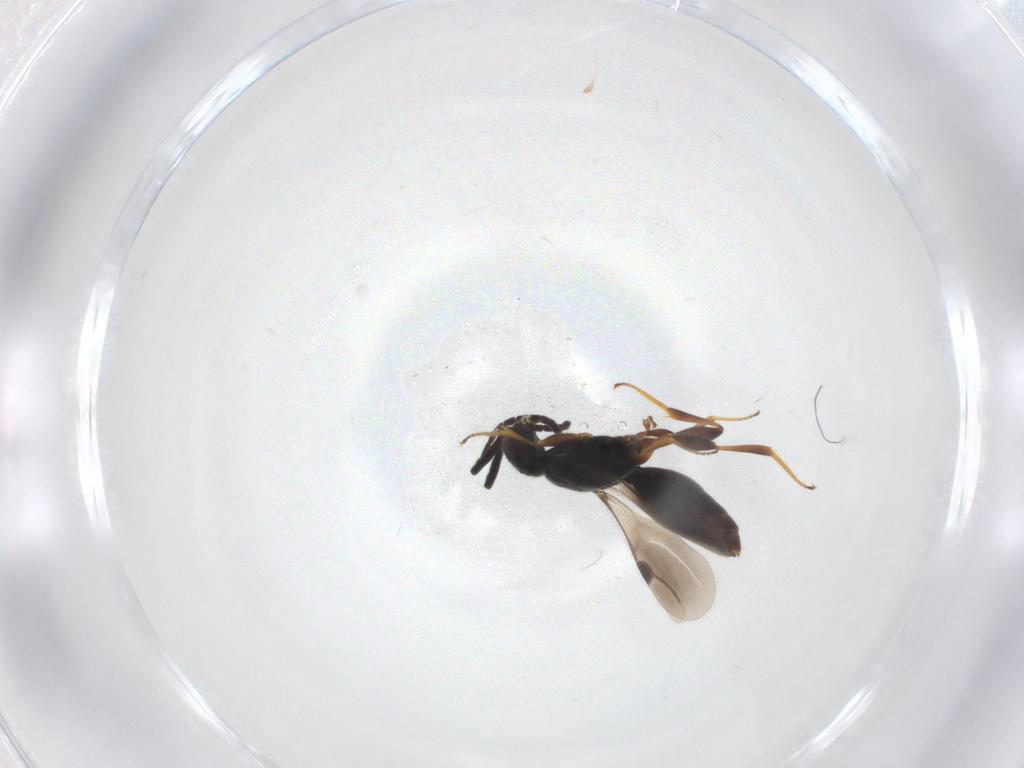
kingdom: Animalia
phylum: Arthropoda
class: Insecta
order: Hymenoptera
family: Megaspilidae
